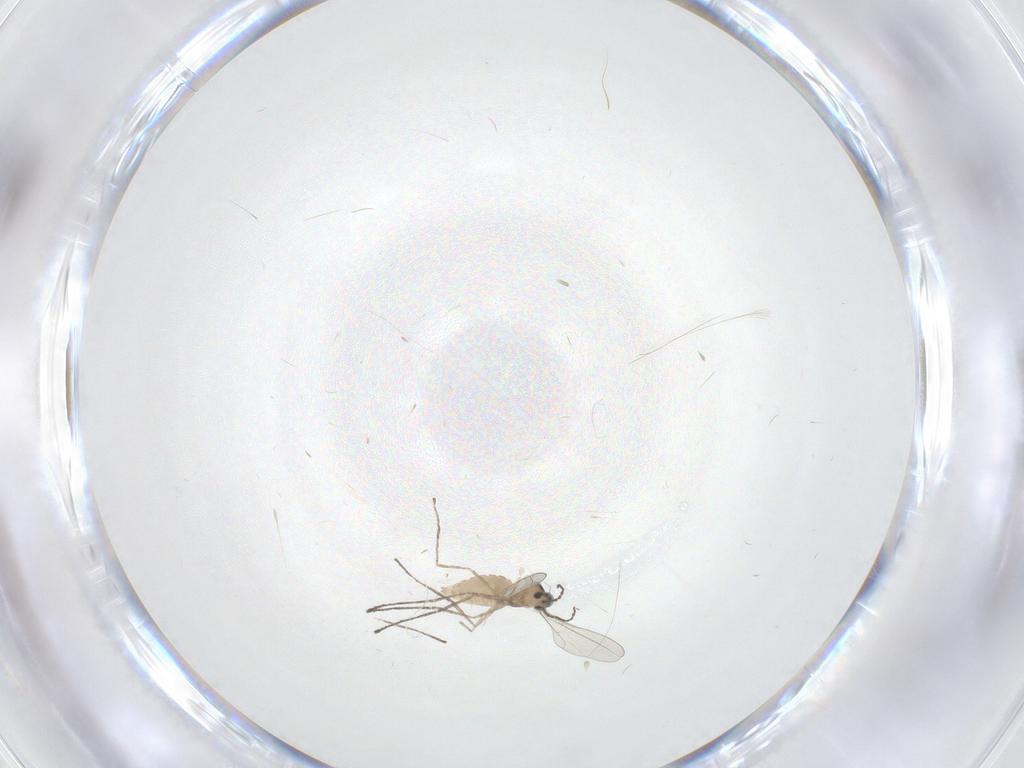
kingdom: Animalia
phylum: Arthropoda
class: Insecta
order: Diptera
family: Cecidomyiidae
